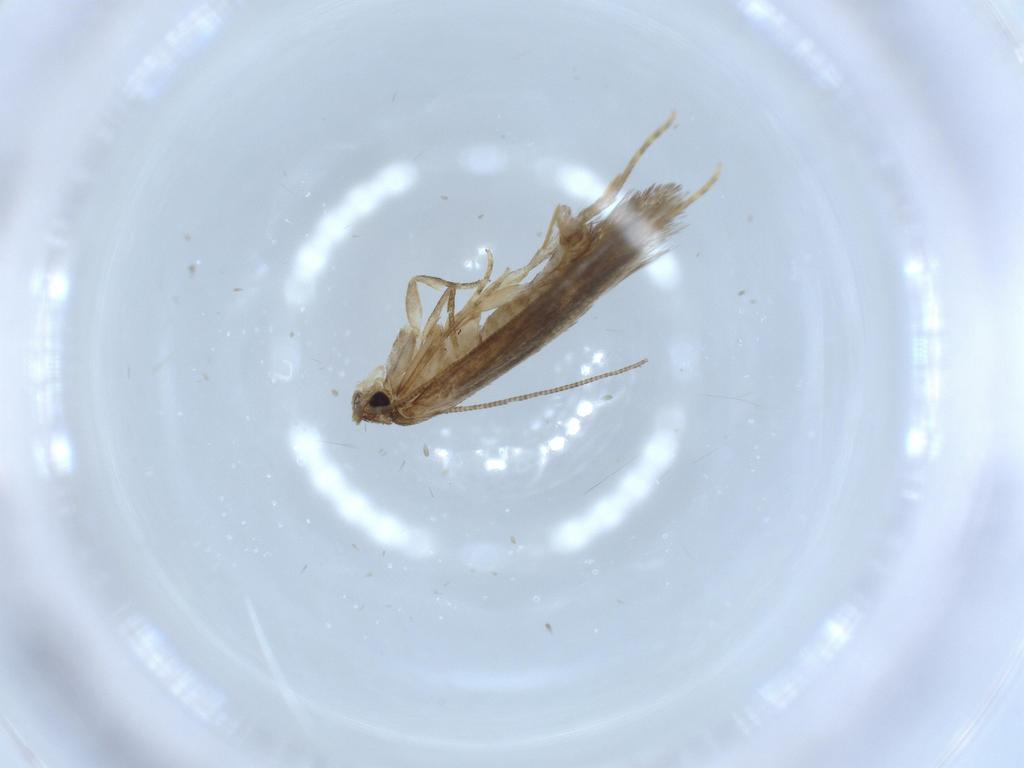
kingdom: Animalia
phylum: Arthropoda
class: Insecta
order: Lepidoptera
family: Tineidae
